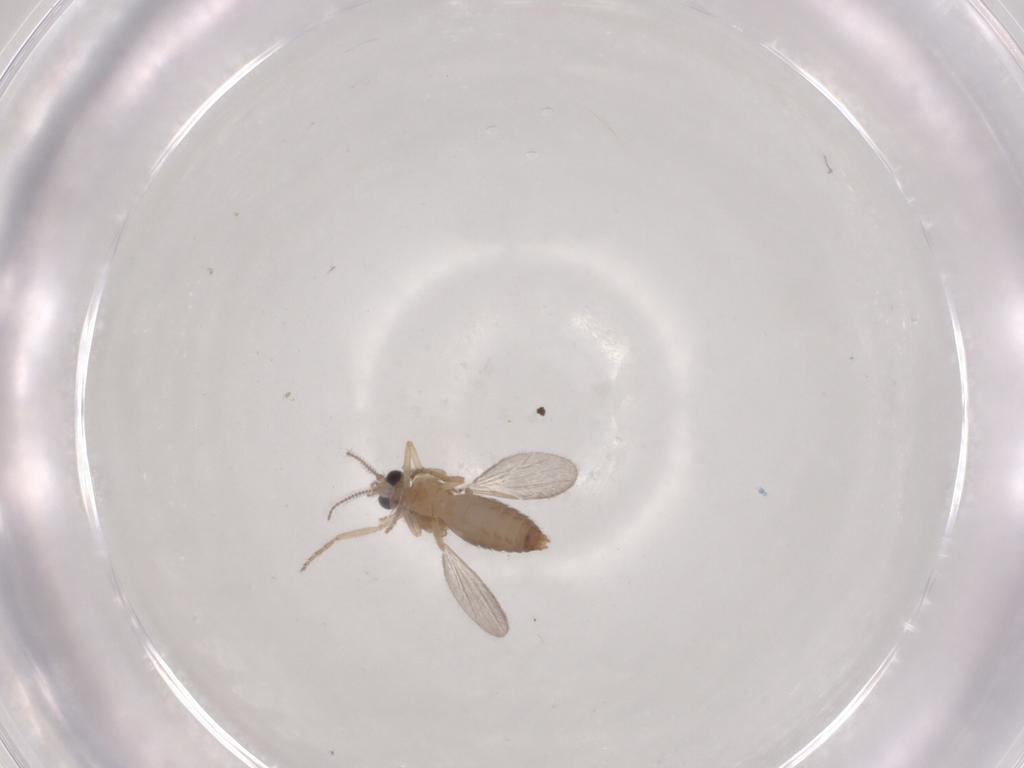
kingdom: Animalia
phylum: Arthropoda
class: Insecta
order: Diptera
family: Ceratopogonidae
